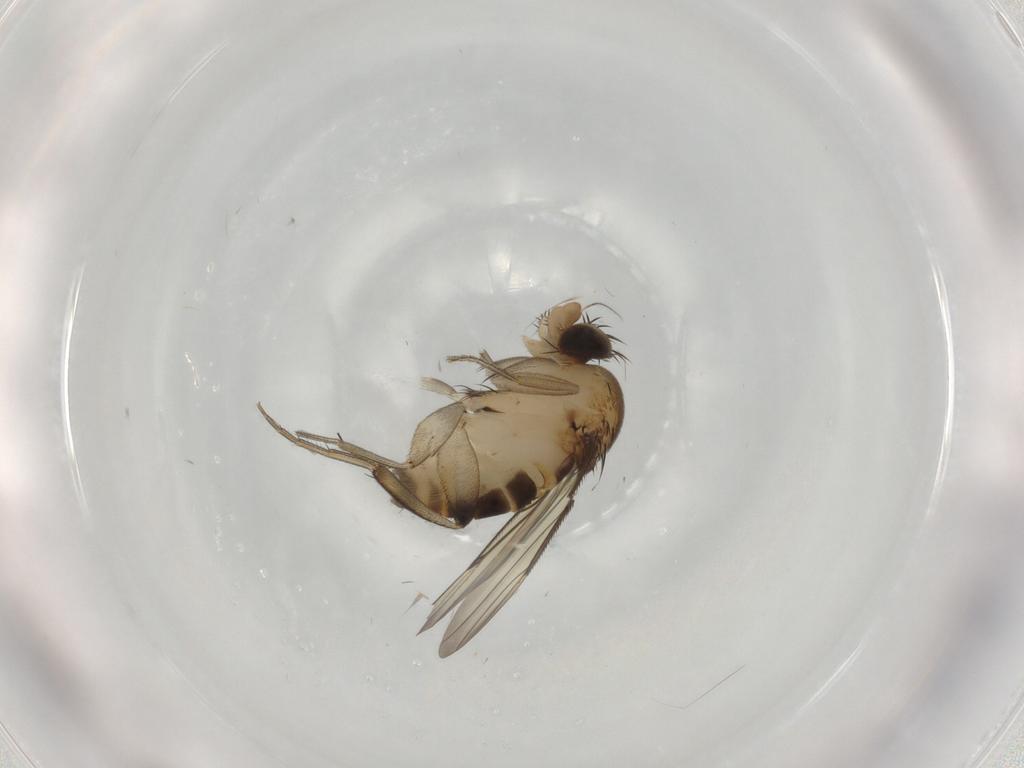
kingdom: Animalia
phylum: Arthropoda
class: Insecta
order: Diptera
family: Phoridae
